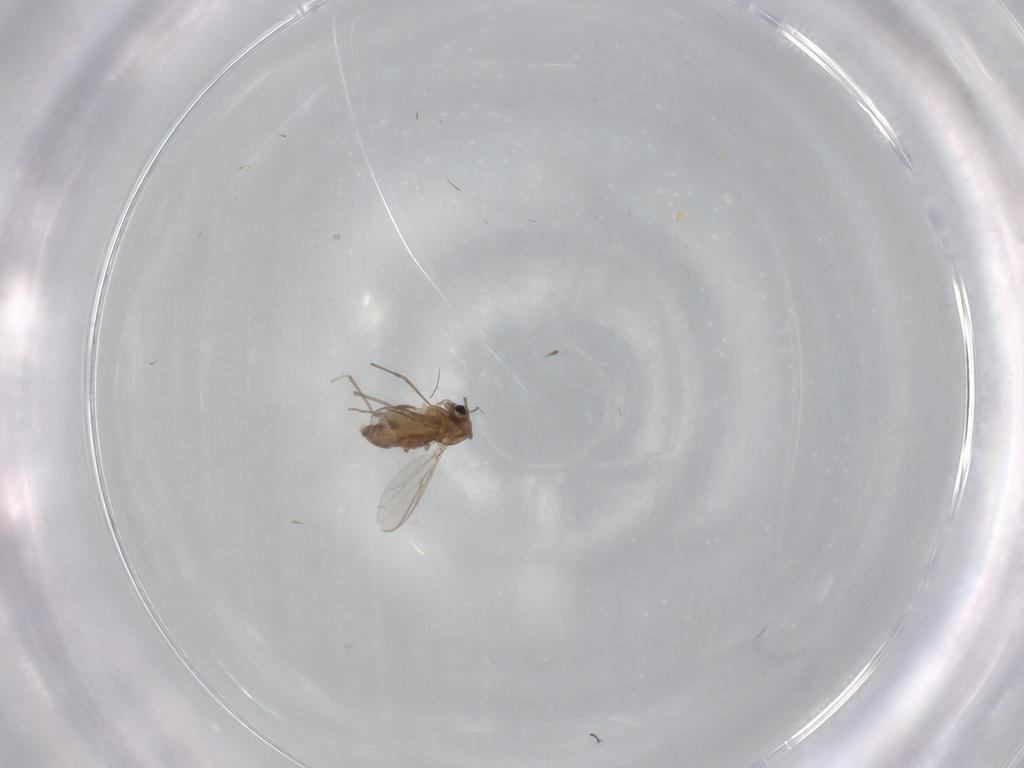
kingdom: Animalia
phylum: Arthropoda
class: Insecta
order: Diptera
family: Chironomidae
